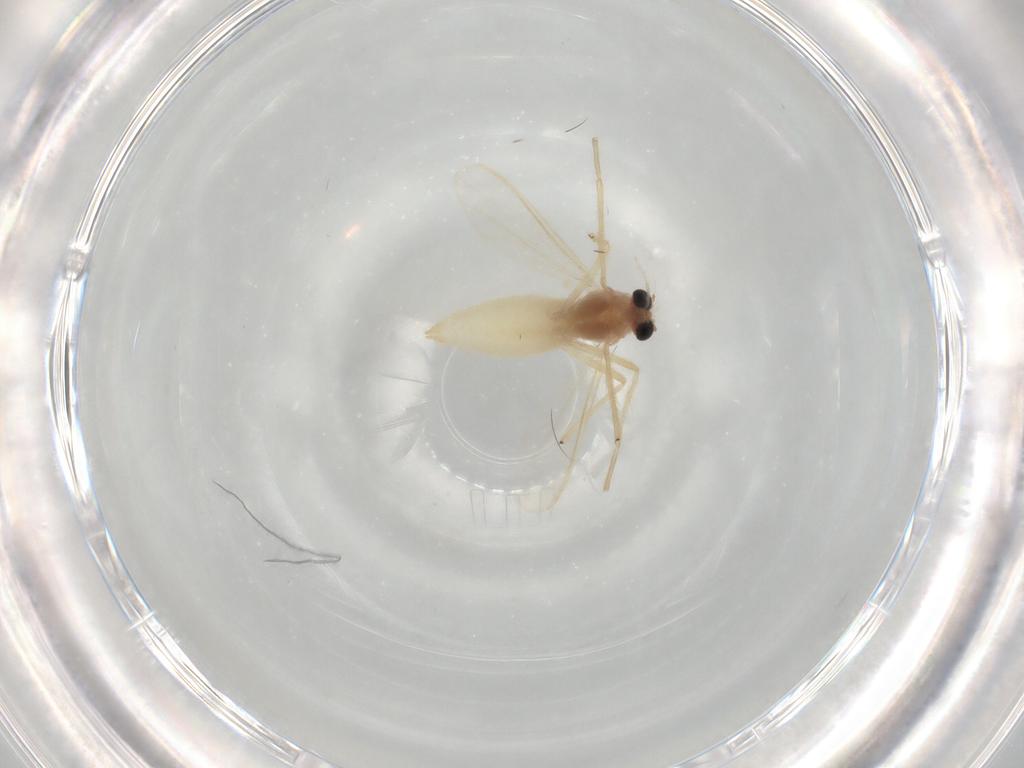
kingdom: Animalia
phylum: Arthropoda
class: Insecta
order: Diptera
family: Chironomidae
